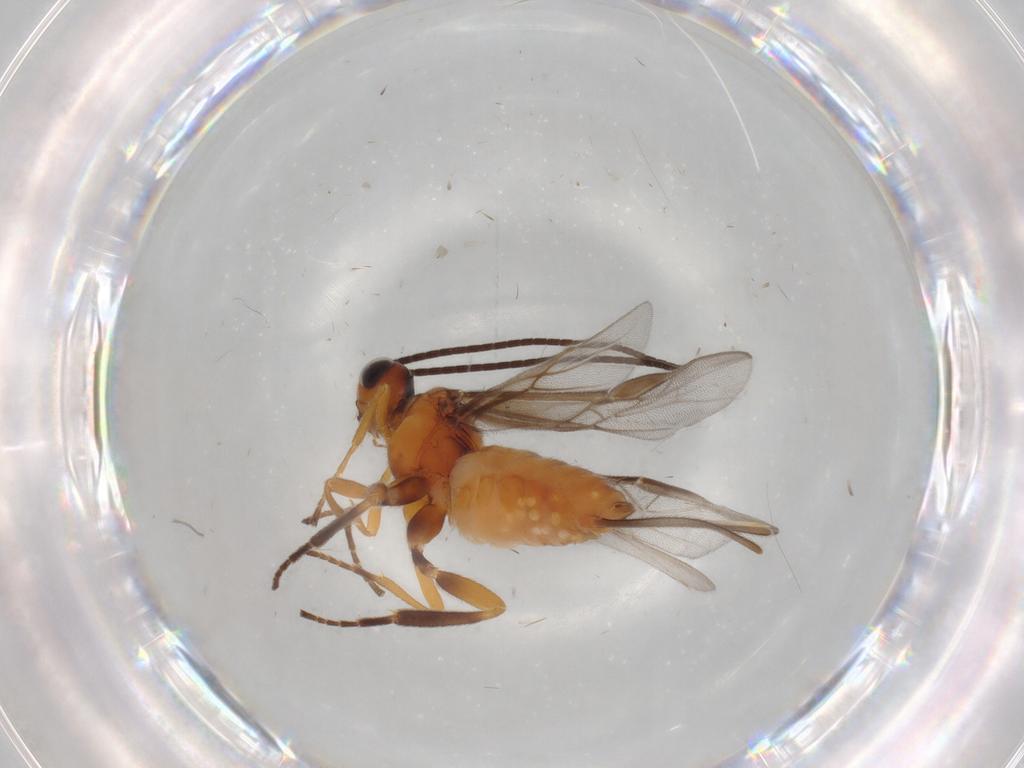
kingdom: Animalia
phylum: Arthropoda
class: Insecta
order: Hymenoptera
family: Braconidae
